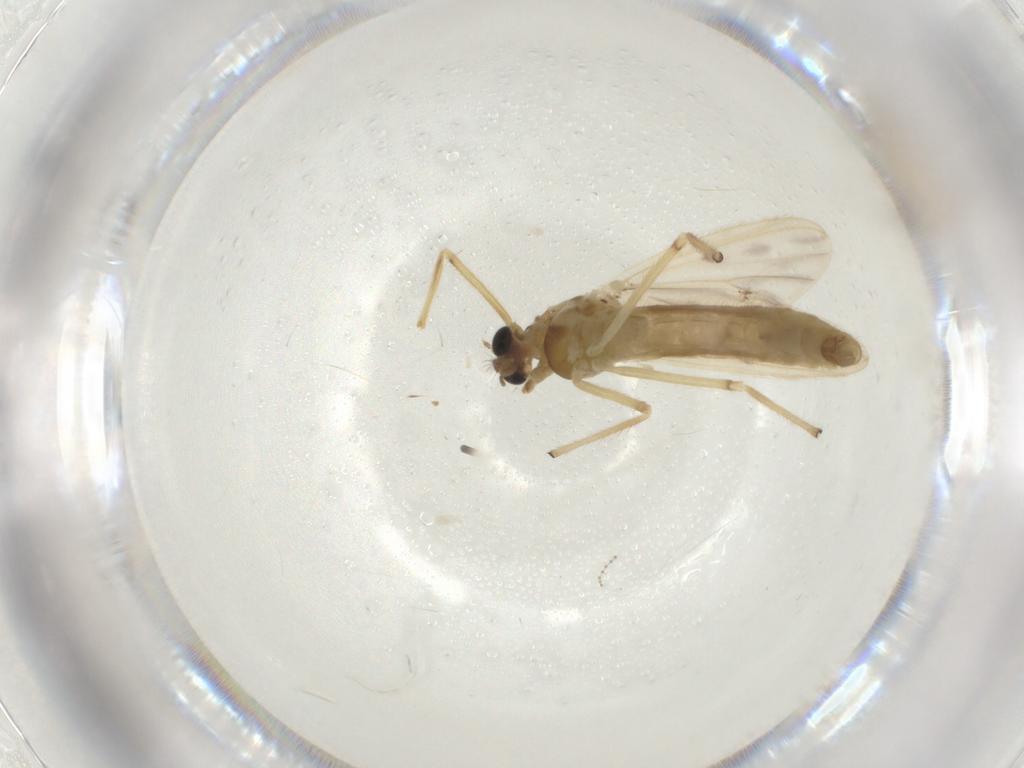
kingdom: Animalia
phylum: Arthropoda
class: Insecta
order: Diptera
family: Chironomidae
